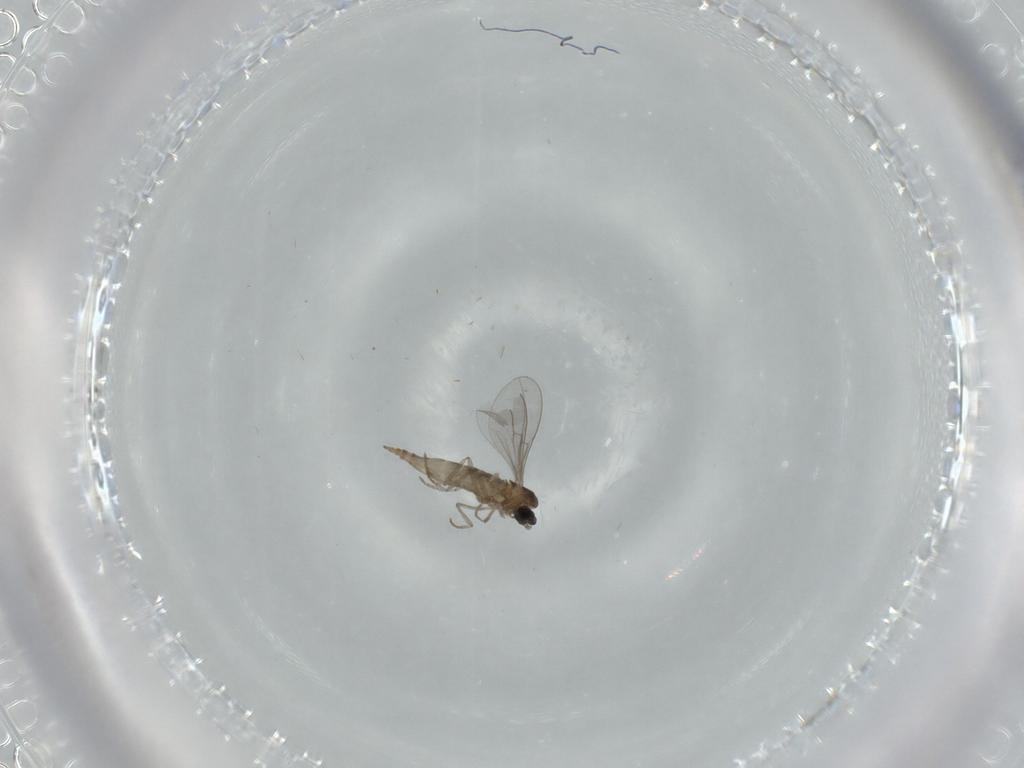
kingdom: Animalia
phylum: Arthropoda
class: Insecta
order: Diptera
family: Cecidomyiidae
